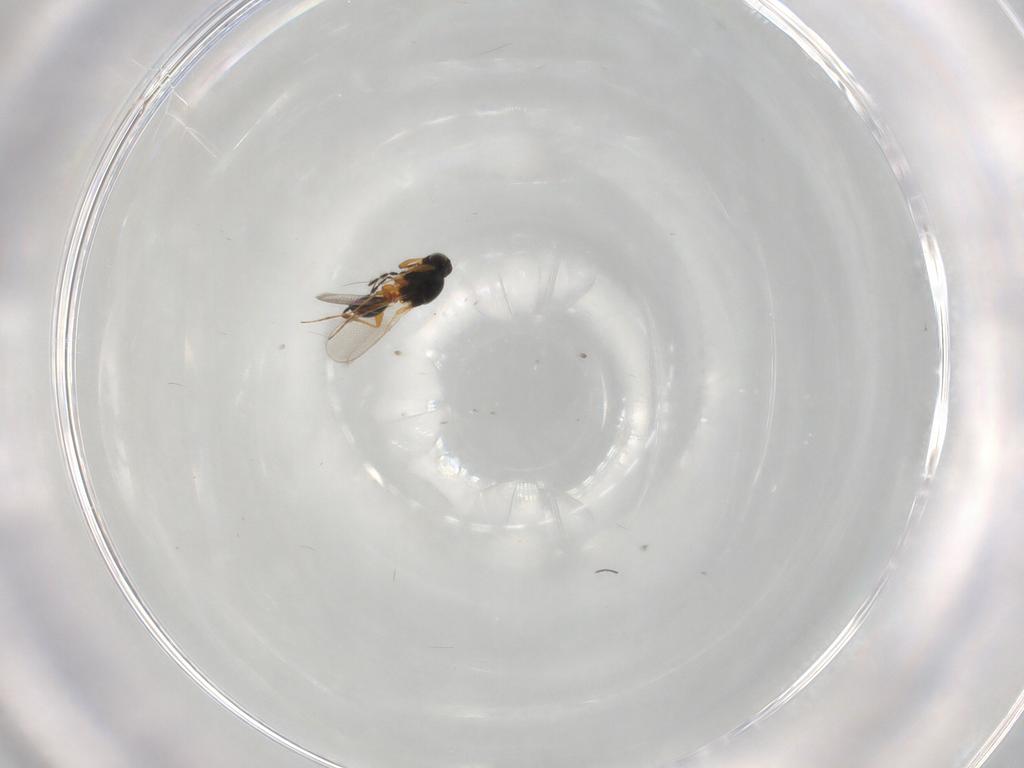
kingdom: Animalia
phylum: Arthropoda
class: Insecta
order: Hymenoptera
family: Platygastridae
